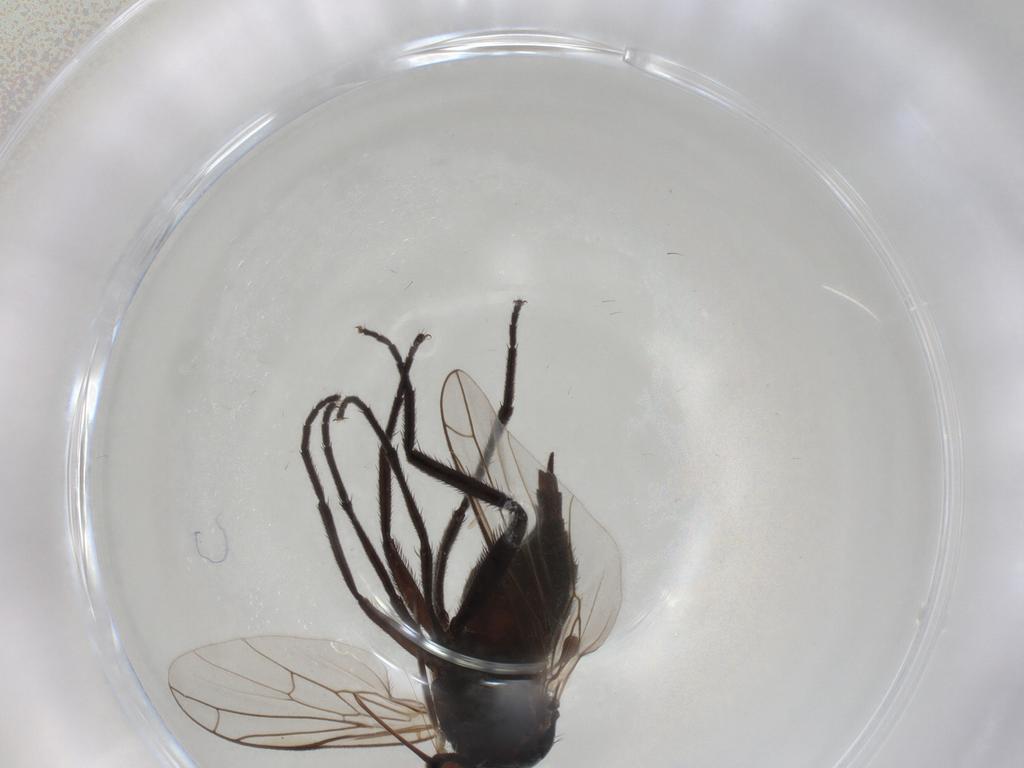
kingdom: Animalia
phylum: Arthropoda
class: Insecta
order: Diptera
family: Empididae
